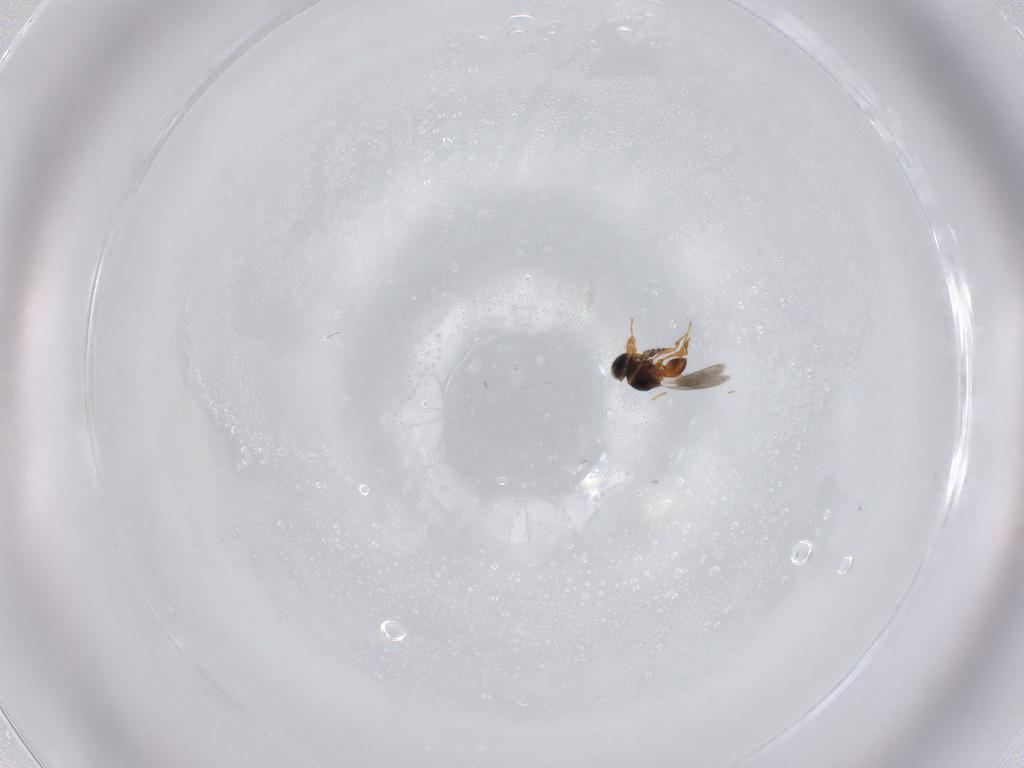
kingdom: Animalia
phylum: Arthropoda
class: Insecta
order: Hymenoptera
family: Platygastridae
